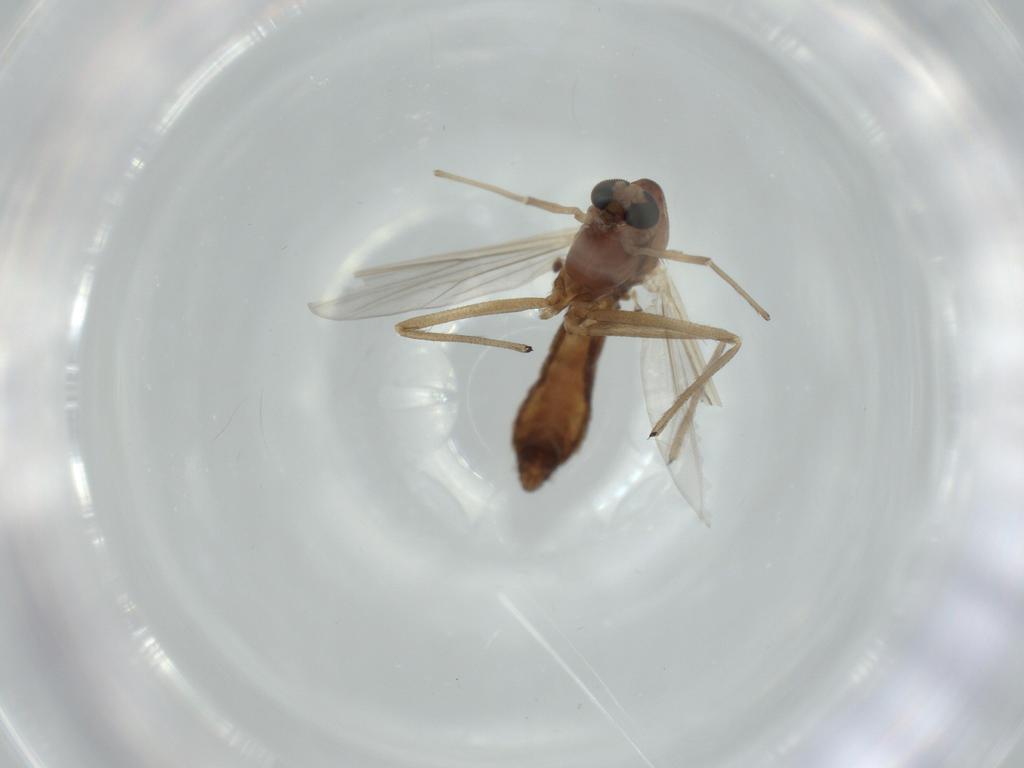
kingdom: Animalia
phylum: Arthropoda
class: Insecta
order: Diptera
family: Chironomidae
